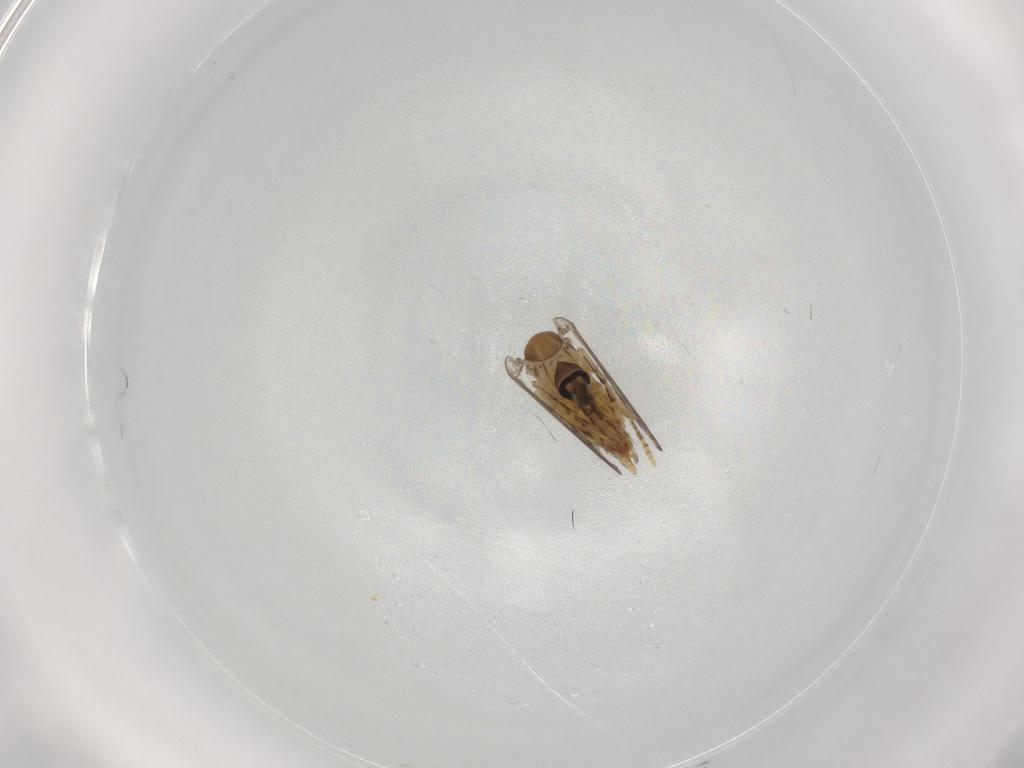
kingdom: Animalia
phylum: Arthropoda
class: Insecta
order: Diptera
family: Psychodidae
